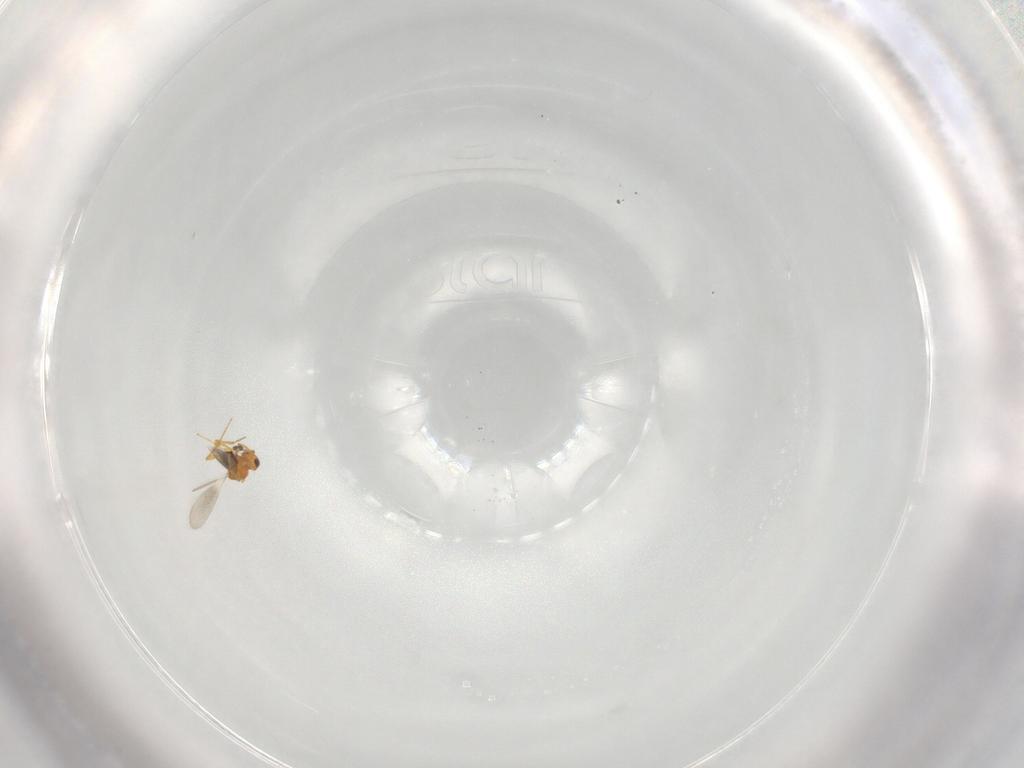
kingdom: Animalia
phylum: Arthropoda
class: Insecta
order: Hymenoptera
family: Platygastridae
